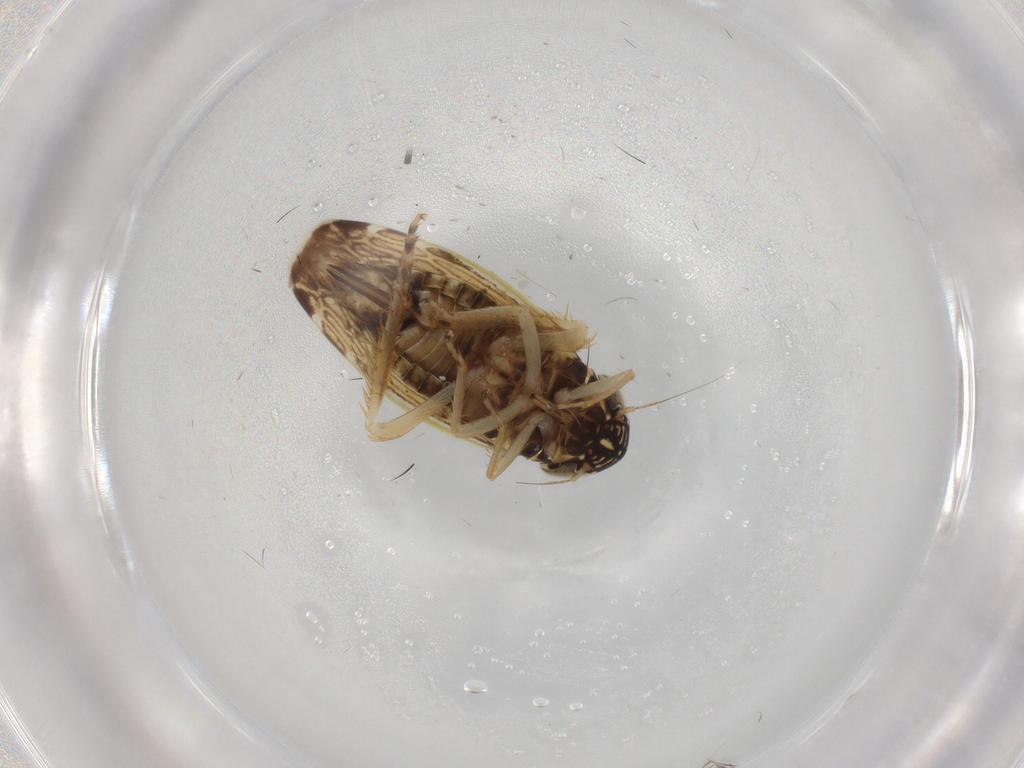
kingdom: Animalia
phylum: Arthropoda
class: Insecta
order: Hemiptera
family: Cicadellidae
